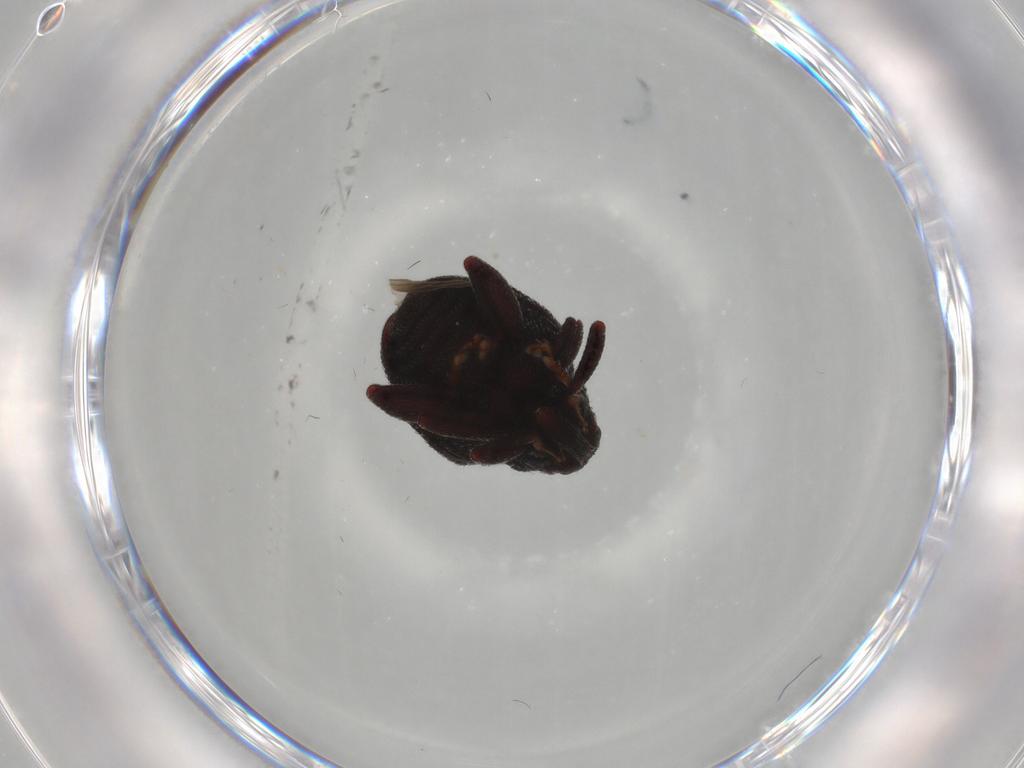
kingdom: Animalia
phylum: Arthropoda
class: Insecta
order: Coleoptera
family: Curculionidae
